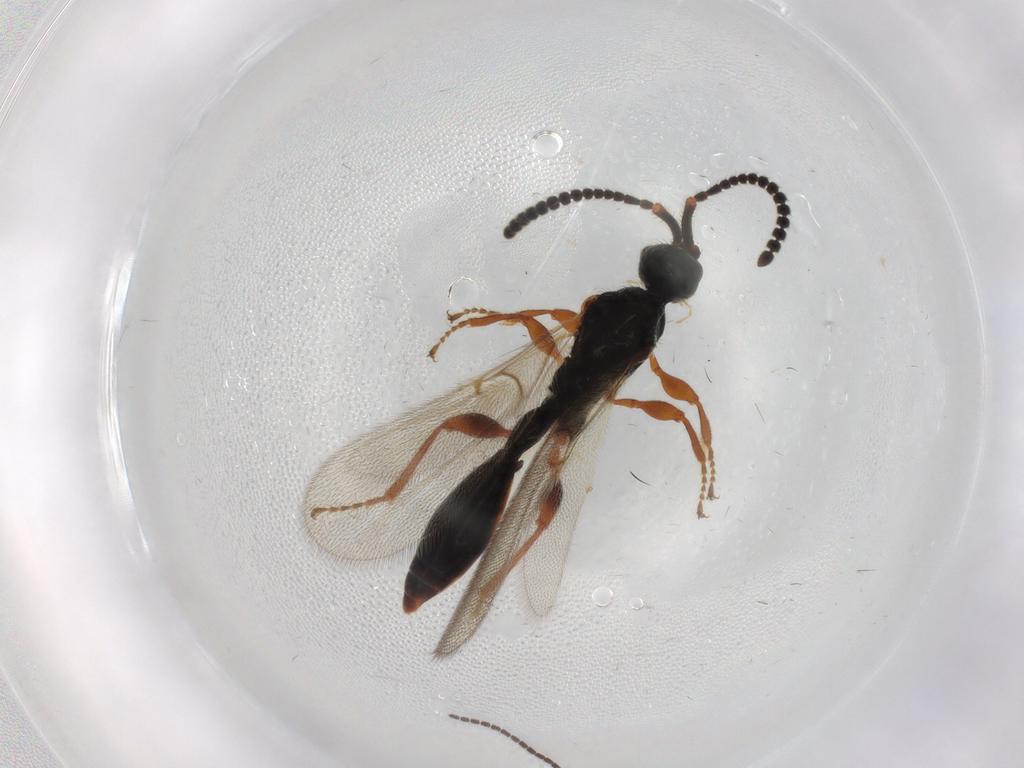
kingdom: Animalia
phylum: Arthropoda
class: Insecta
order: Hymenoptera
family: Diapriidae
